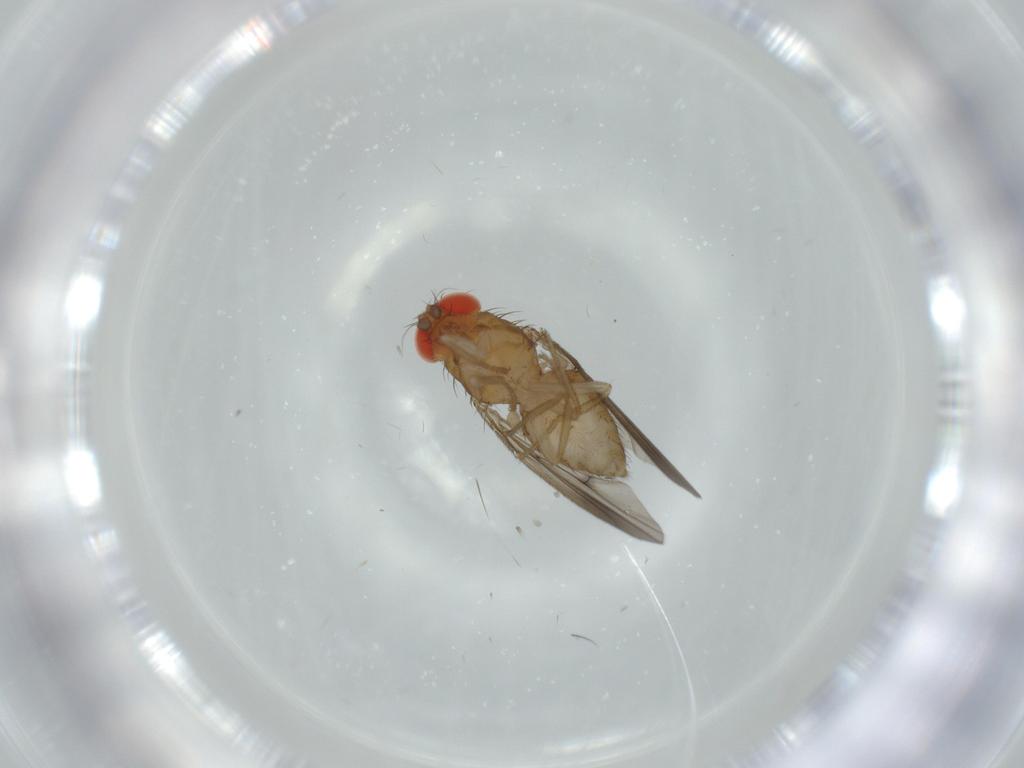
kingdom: Animalia
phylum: Arthropoda
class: Insecta
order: Diptera
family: Drosophilidae
